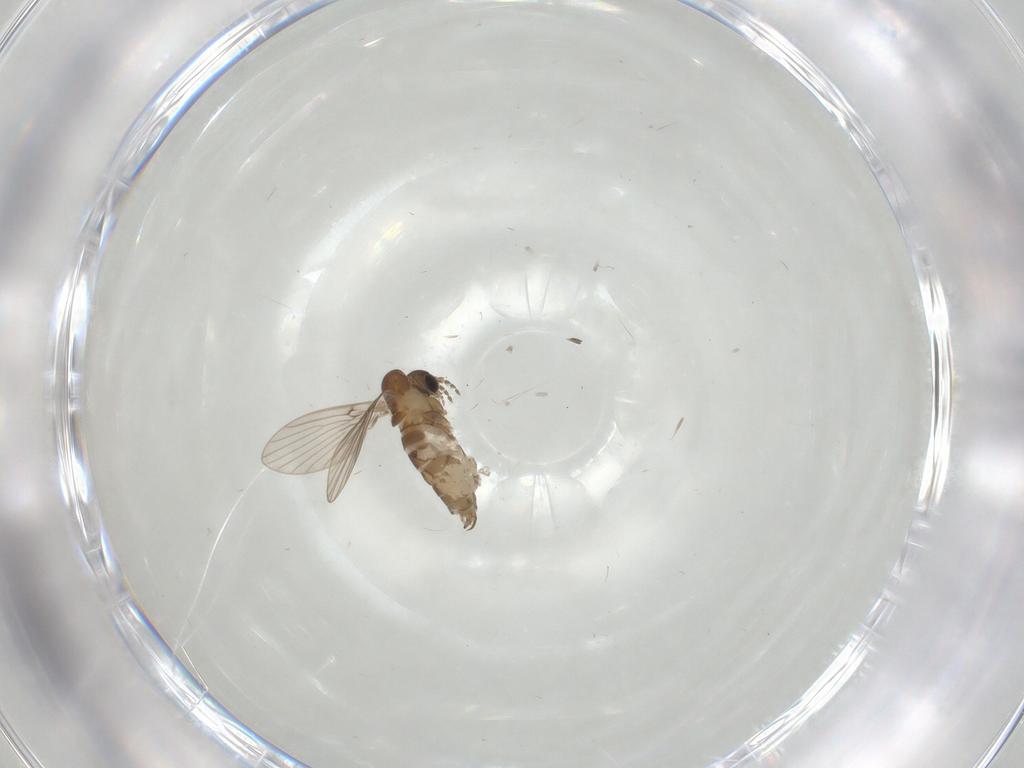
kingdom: Animalia
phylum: Arthropoda
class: Insecta
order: Diptera
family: Sciaridae
